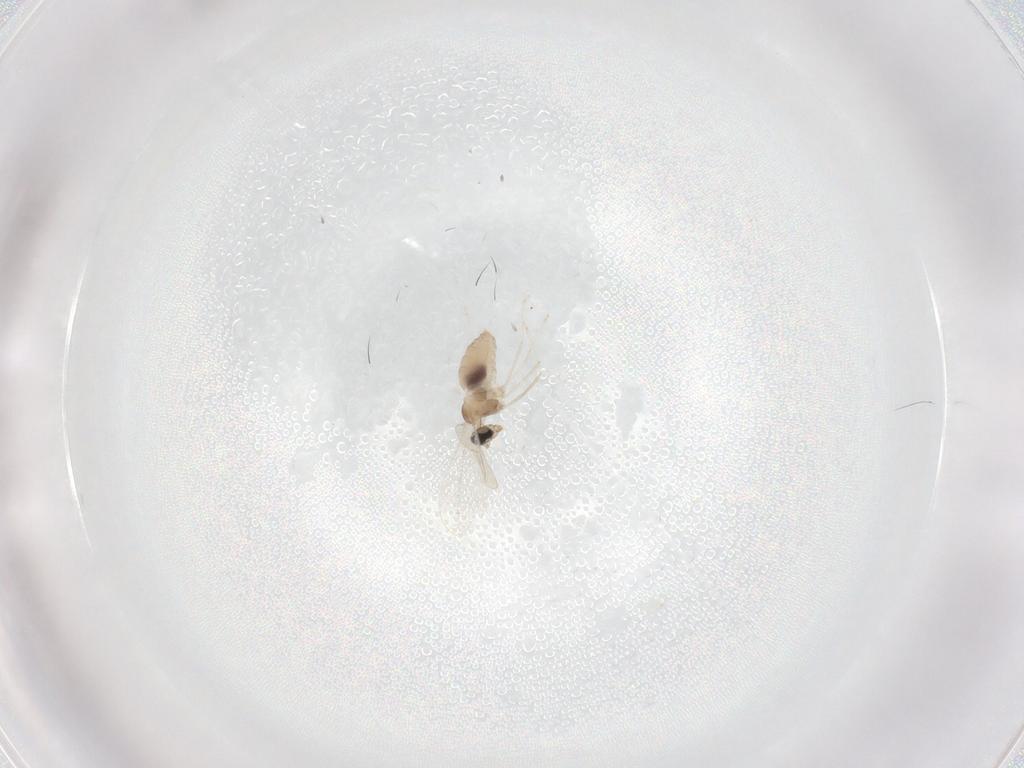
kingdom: Animalia
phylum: Arthropoda
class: Insecta
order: Diptera
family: Cecidomyiidae
